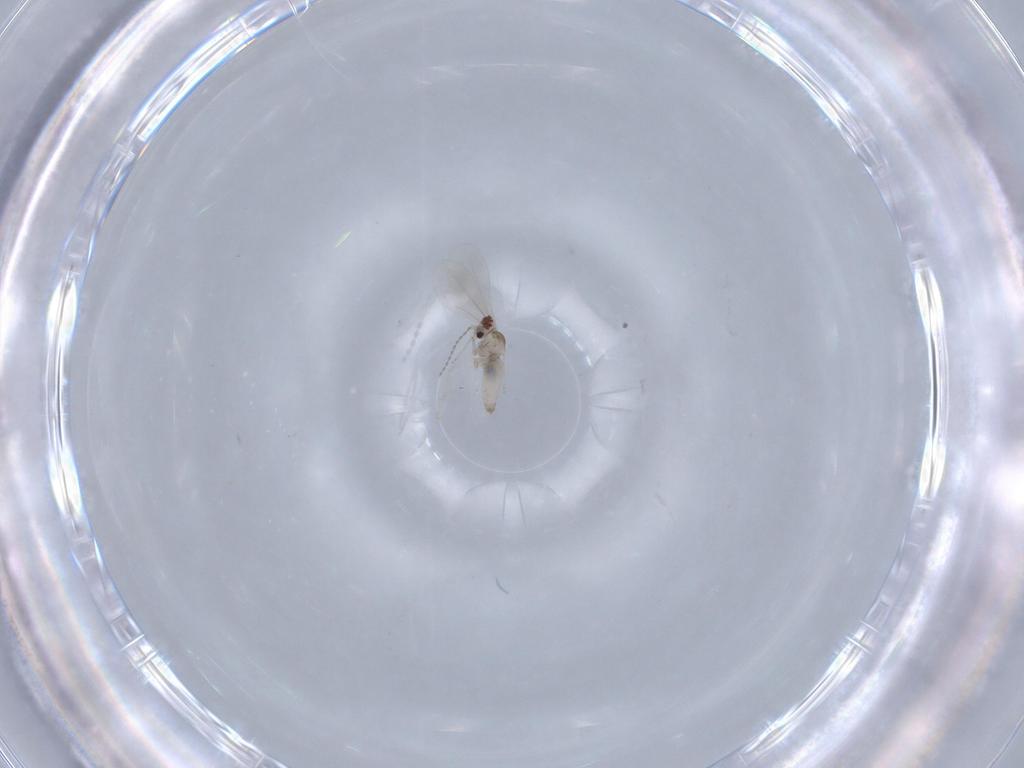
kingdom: Animalia
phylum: Arthropoda
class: Insecta
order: Diptera
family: Cecidomyiidae
